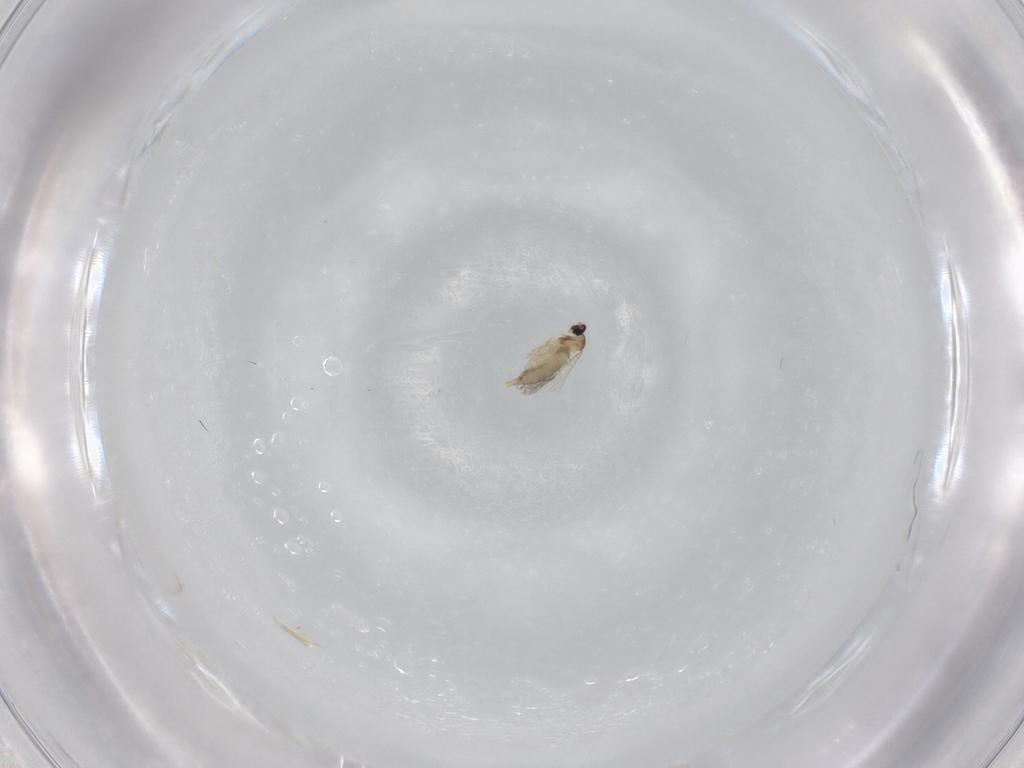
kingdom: Animalia
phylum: Arthropoda
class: Insecta
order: Diptera
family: Phoridae
